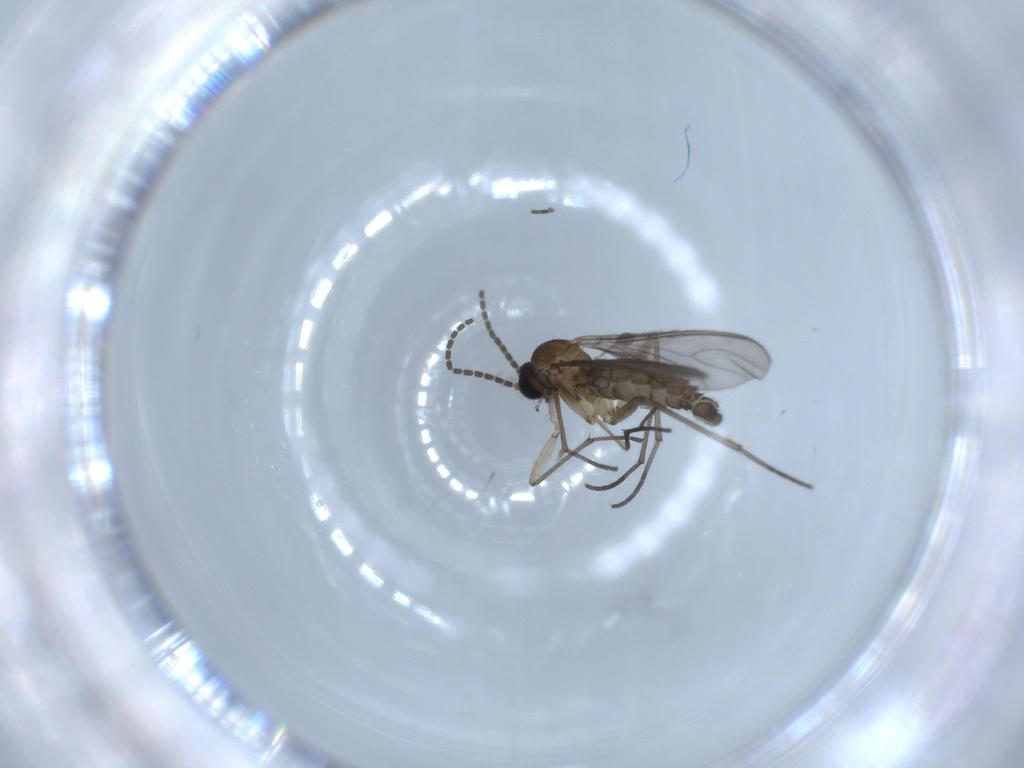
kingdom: Animalia
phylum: Arthropoda
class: Insecta
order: Diptera
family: Sciaridae
